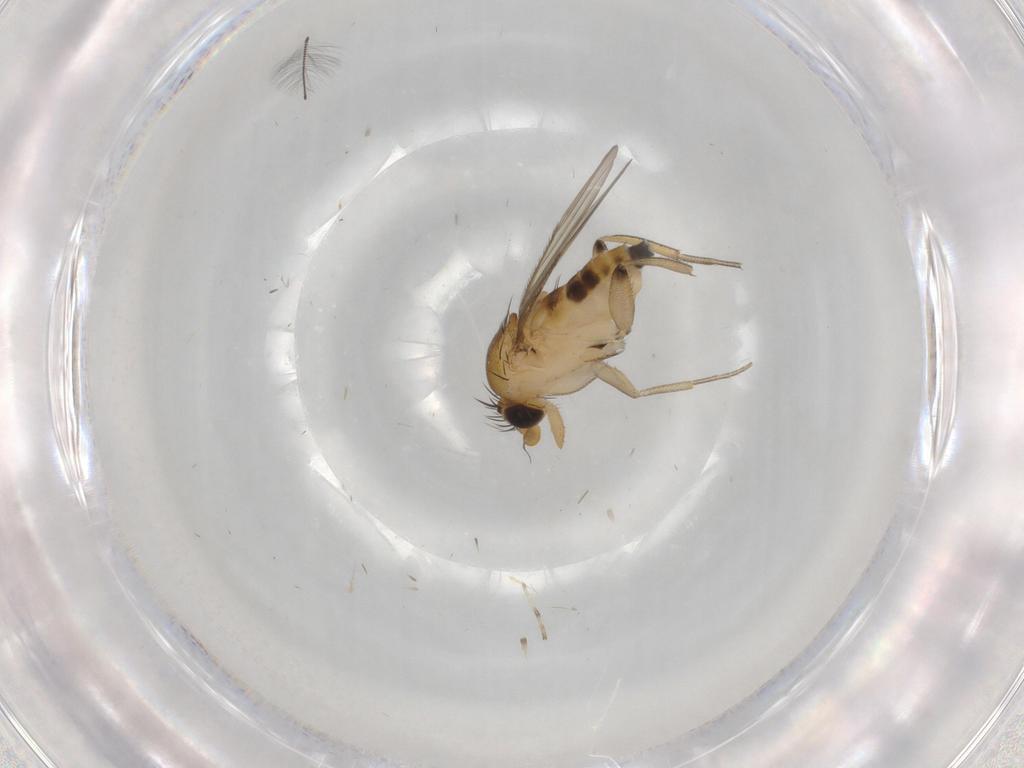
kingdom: Animalia
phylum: Arthropoda
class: Insecta
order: Diptera
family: Phoridae
